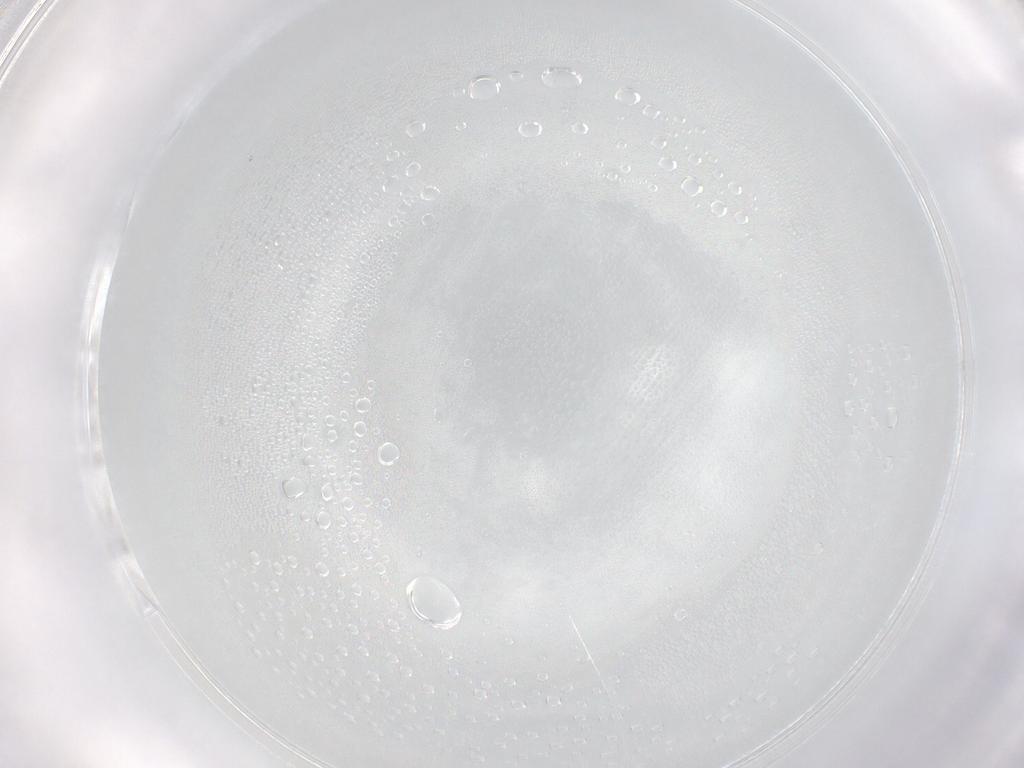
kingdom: Animalia
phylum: Arthropoda
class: Insecta
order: Diptera
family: Phoridae
